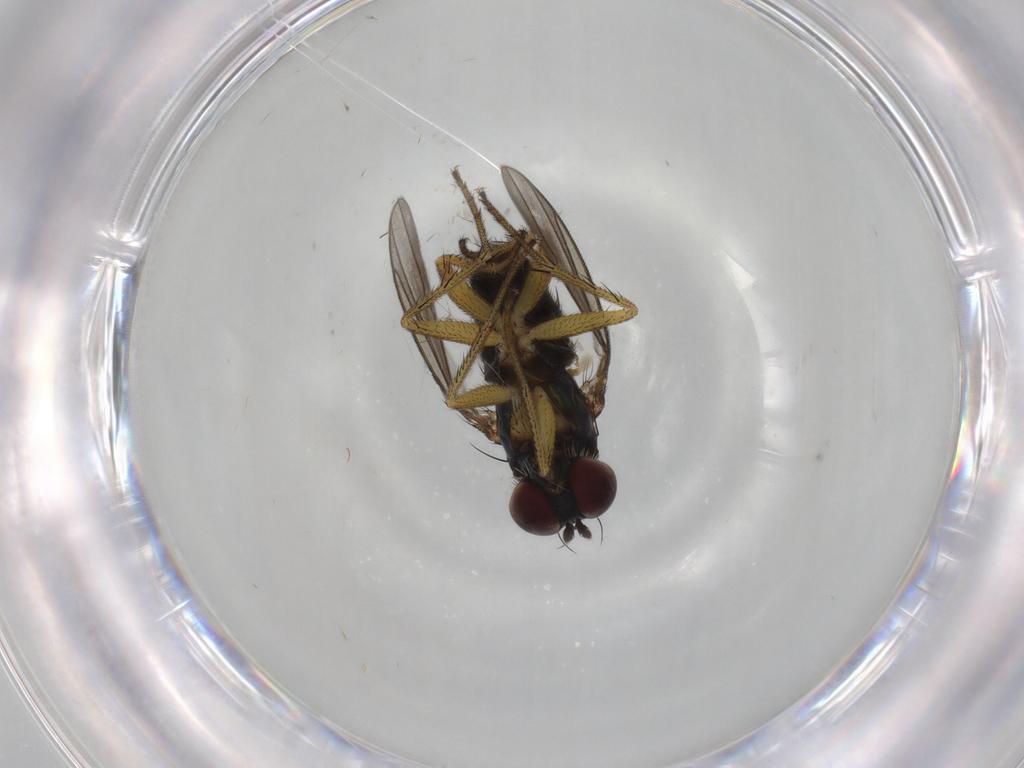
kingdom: Animalia
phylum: Arthropoda
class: Insecta
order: Diptera
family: Dolichopodidae
